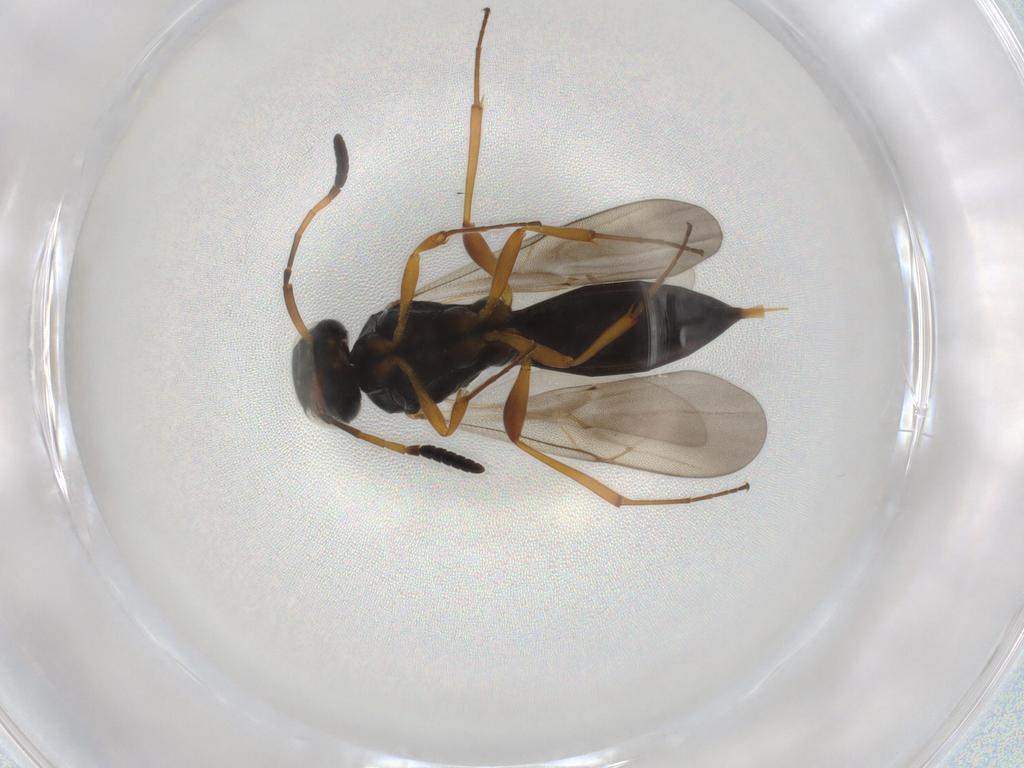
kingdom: Animalia
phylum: Arthropoda
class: Insecta
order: Hymenoptera
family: Scelionidae
